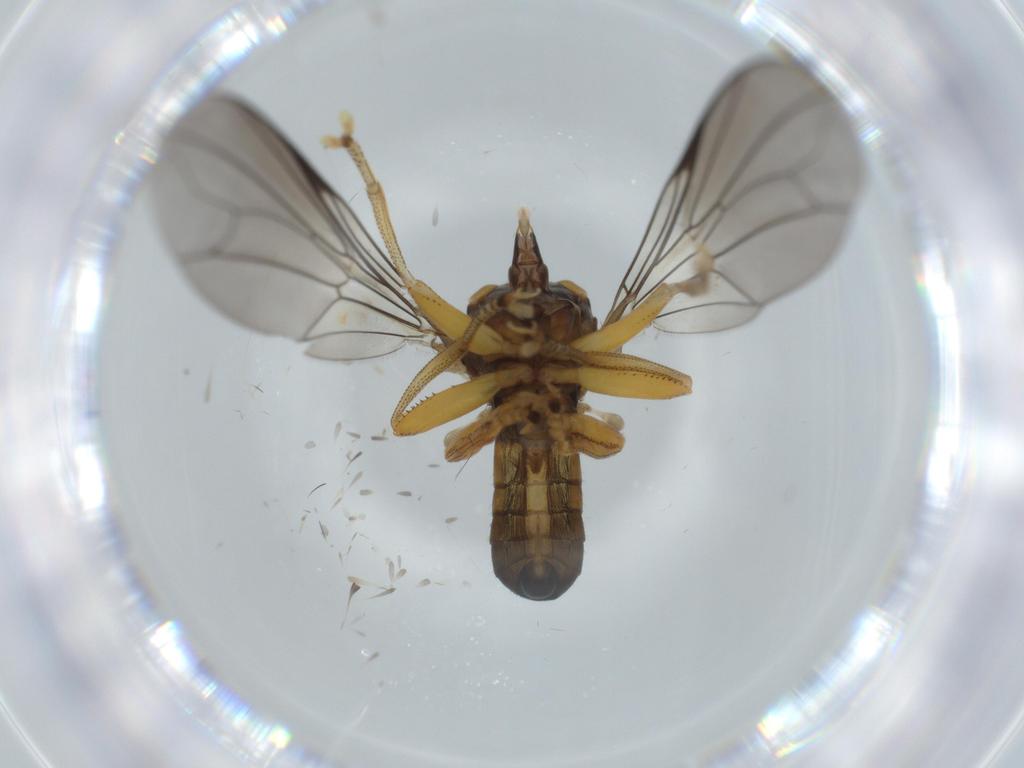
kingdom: Animalia
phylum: Arthropoda
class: Insecta
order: Diptera
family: Pipunculidae
